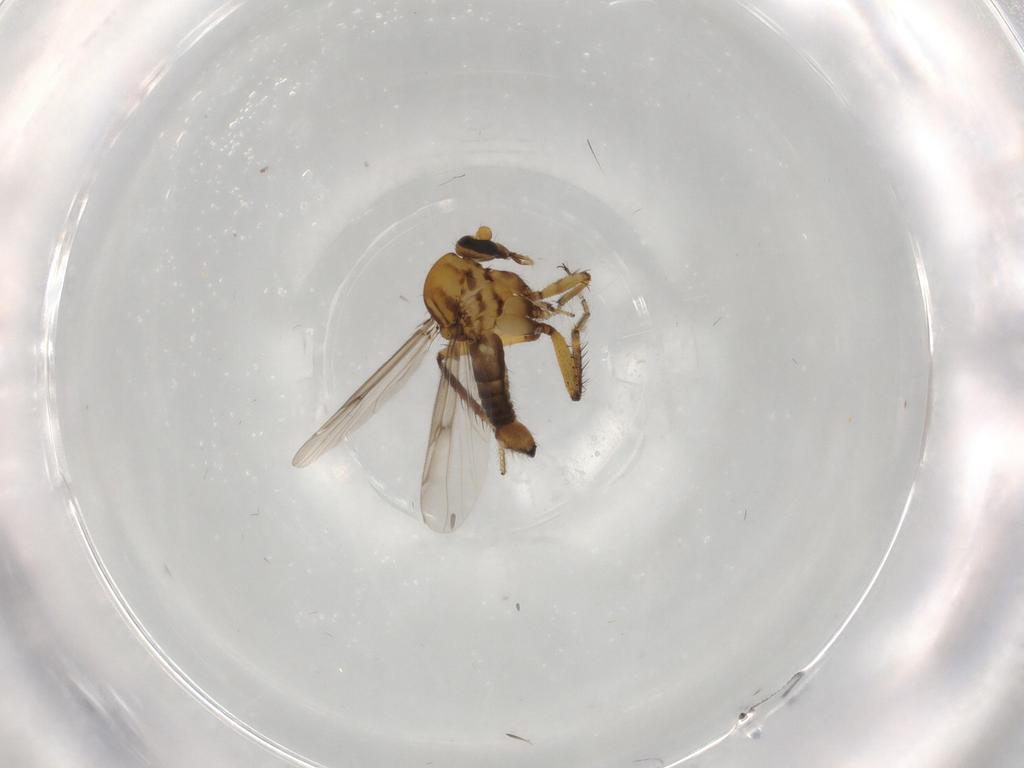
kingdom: Animalia
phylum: Arthropoda
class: Insecta
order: Diptera
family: Sciaridae
